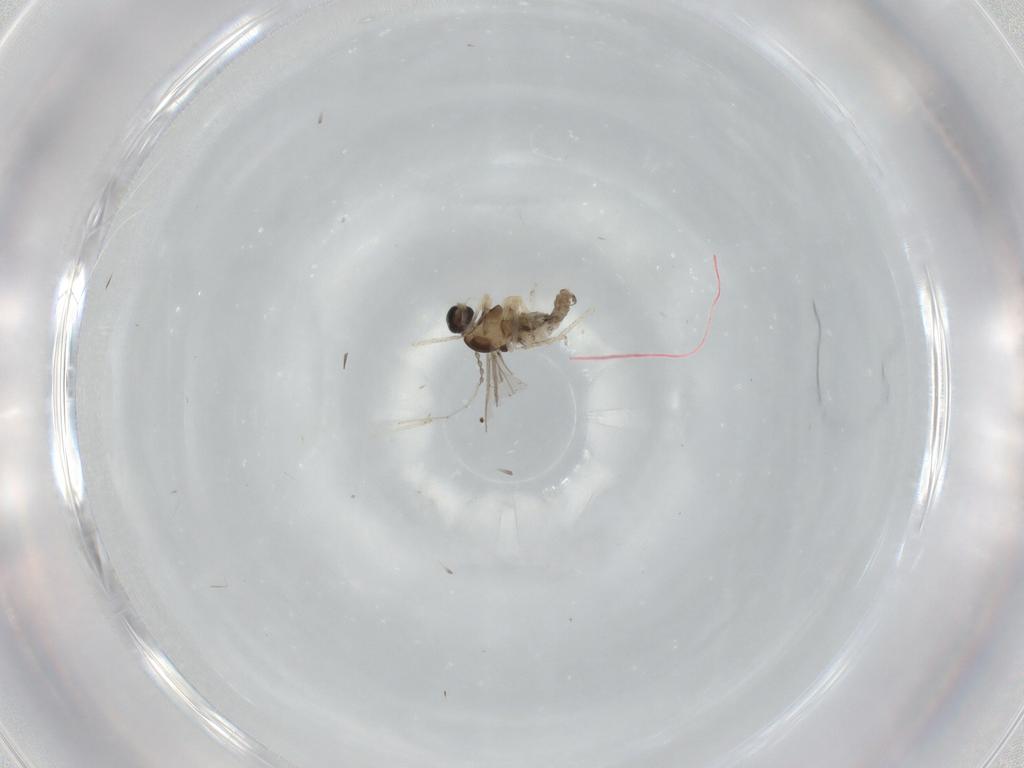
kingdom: Animalia
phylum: Arthropoda
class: Insecta
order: Diptera
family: Cecidomyiidae
